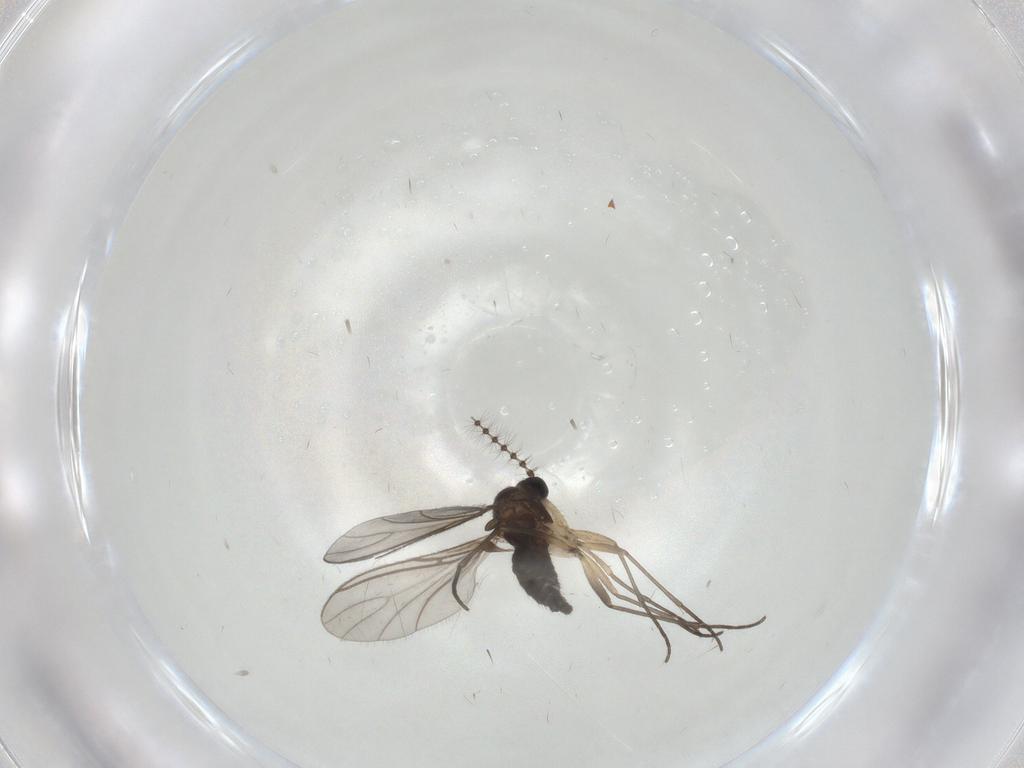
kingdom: Animalia
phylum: Arthropoda
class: Insecta
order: Diptera
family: Sciaridae
